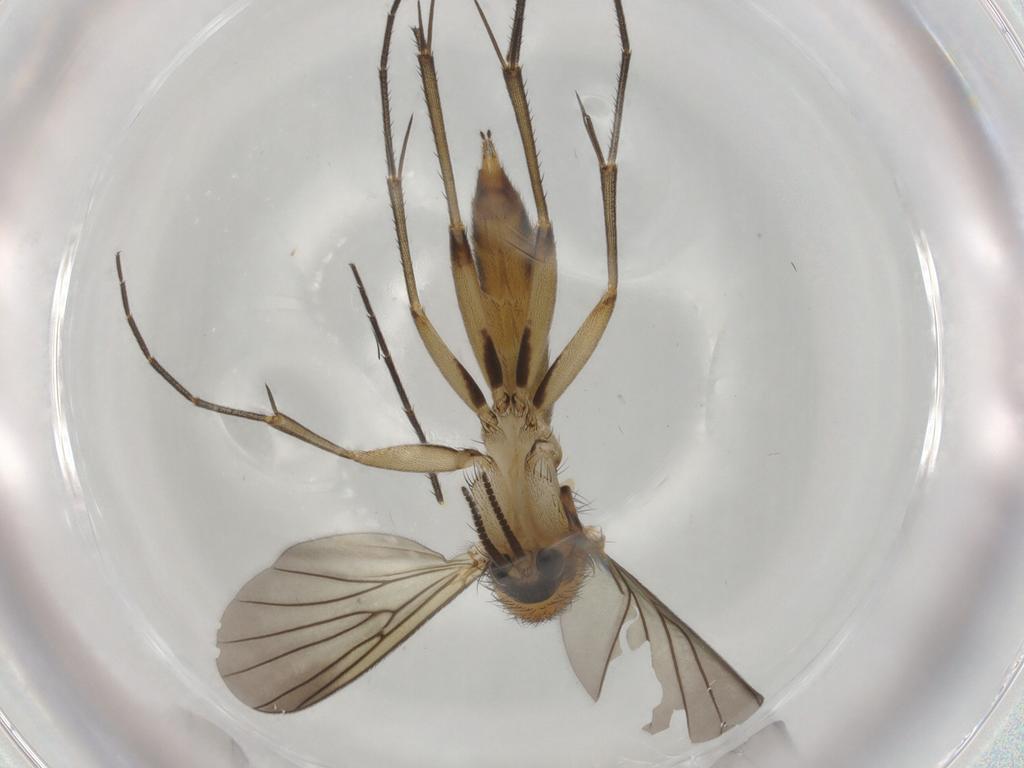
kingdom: Animalia
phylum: Arthropoda
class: Insecta
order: Diptera
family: Mycetophilidae
